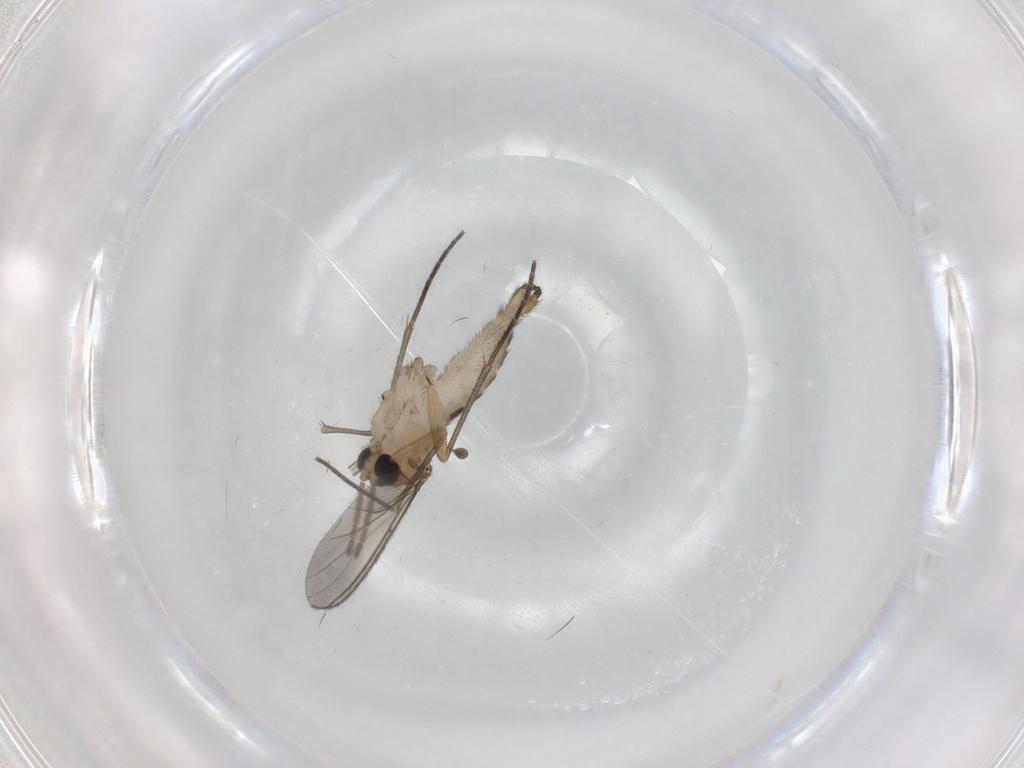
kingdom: Animalia
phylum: Arthropoda
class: Insecta
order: Diptera
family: Sciaridae
